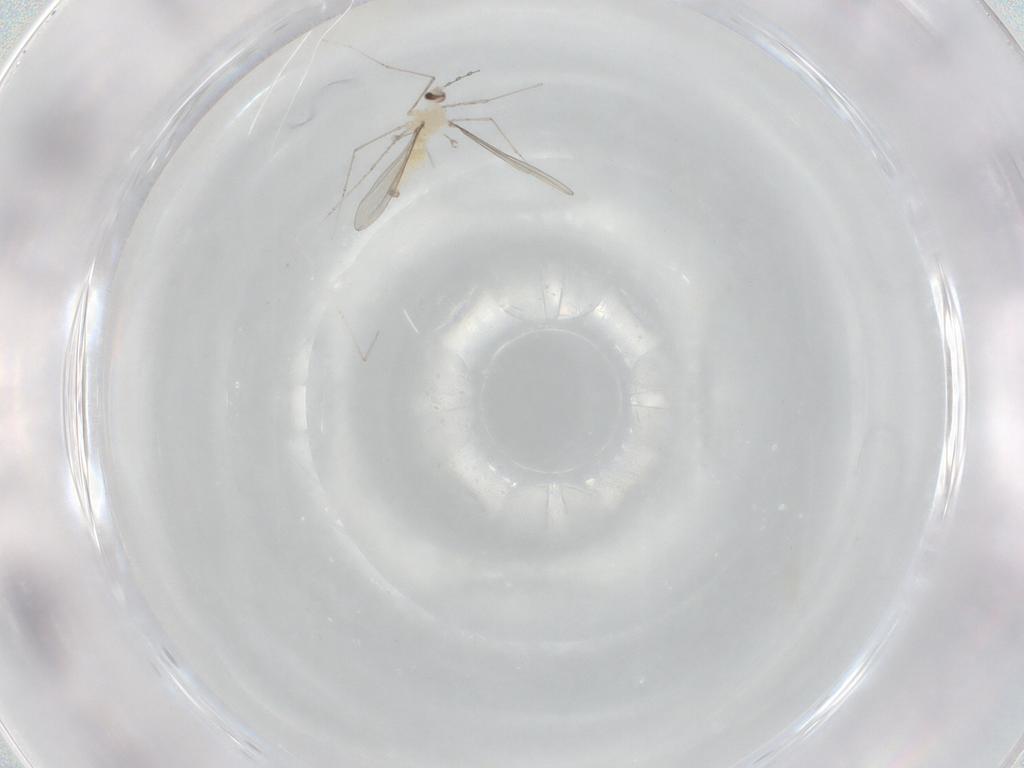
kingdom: Animalia
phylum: Arthropoda
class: Insecta
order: Diptera
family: Cecidomyiidae
